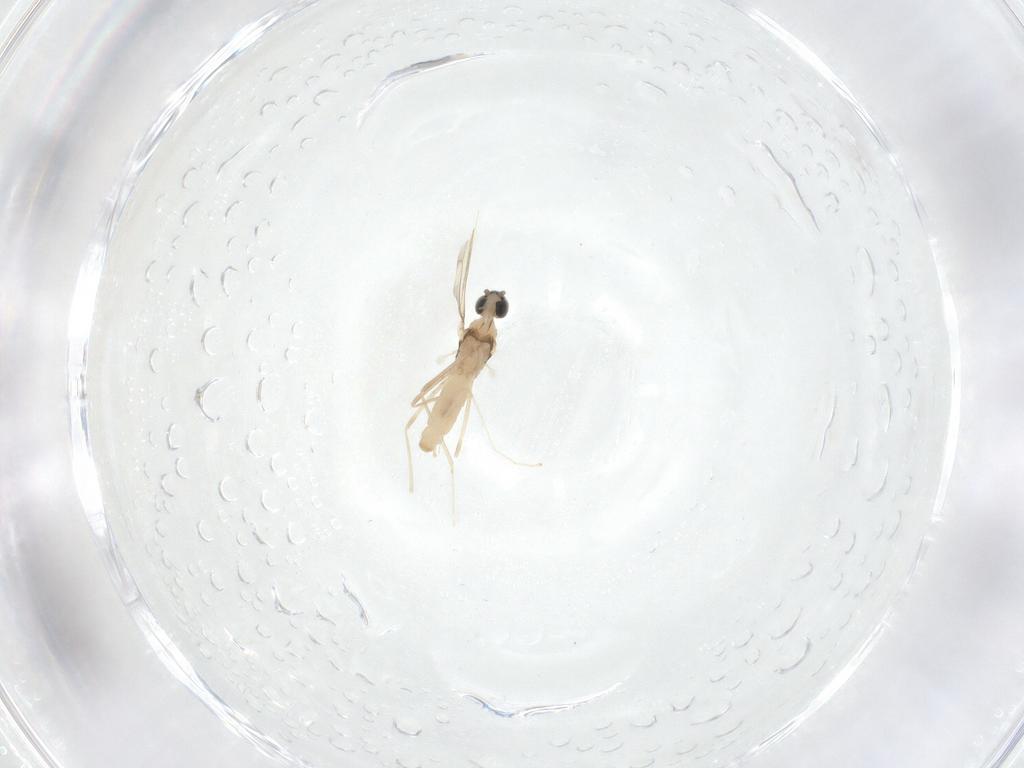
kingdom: Animalia
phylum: Arthropoda
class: Insecta
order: Diptera
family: Cecidomyiidae
